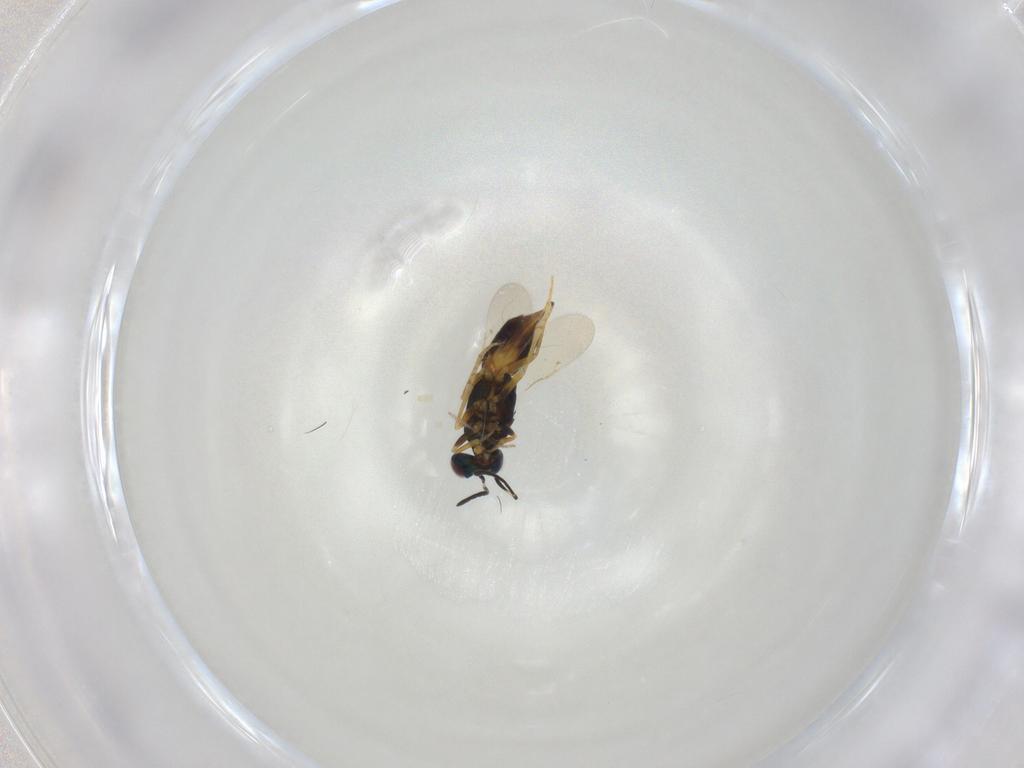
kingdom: Animalia
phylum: Arthropoda
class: Insecta
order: Hymenoptera
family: Encyrtidae
